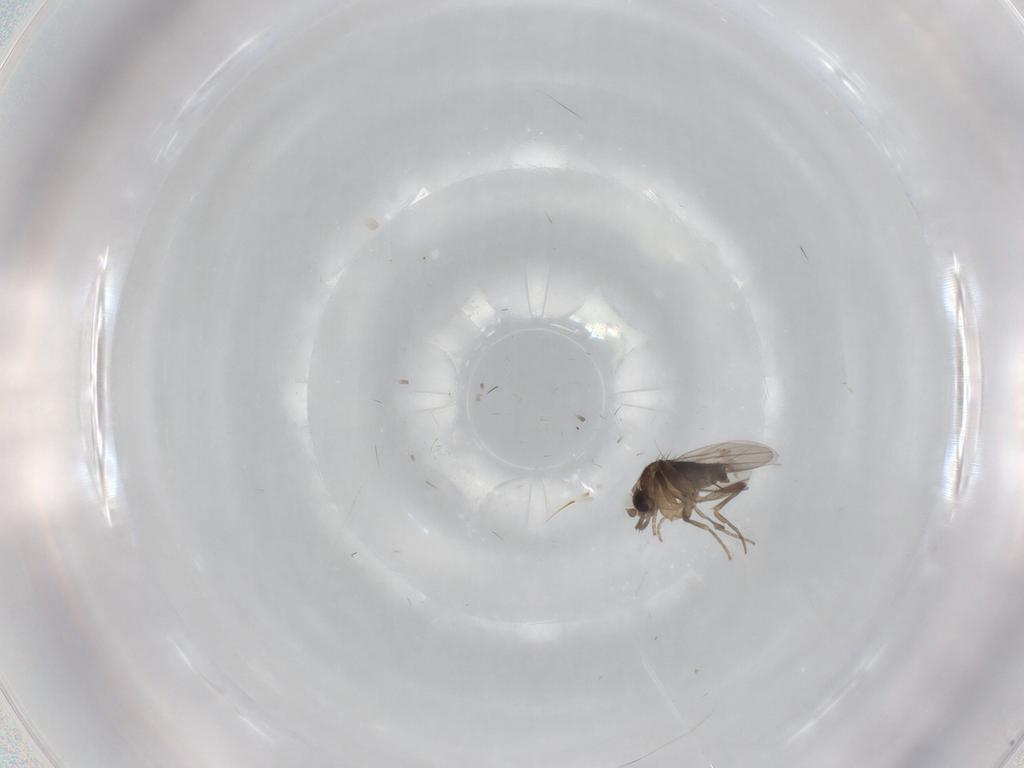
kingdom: Animalia
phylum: Arthropoda
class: Insecta
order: Diptera
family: Phoridae
